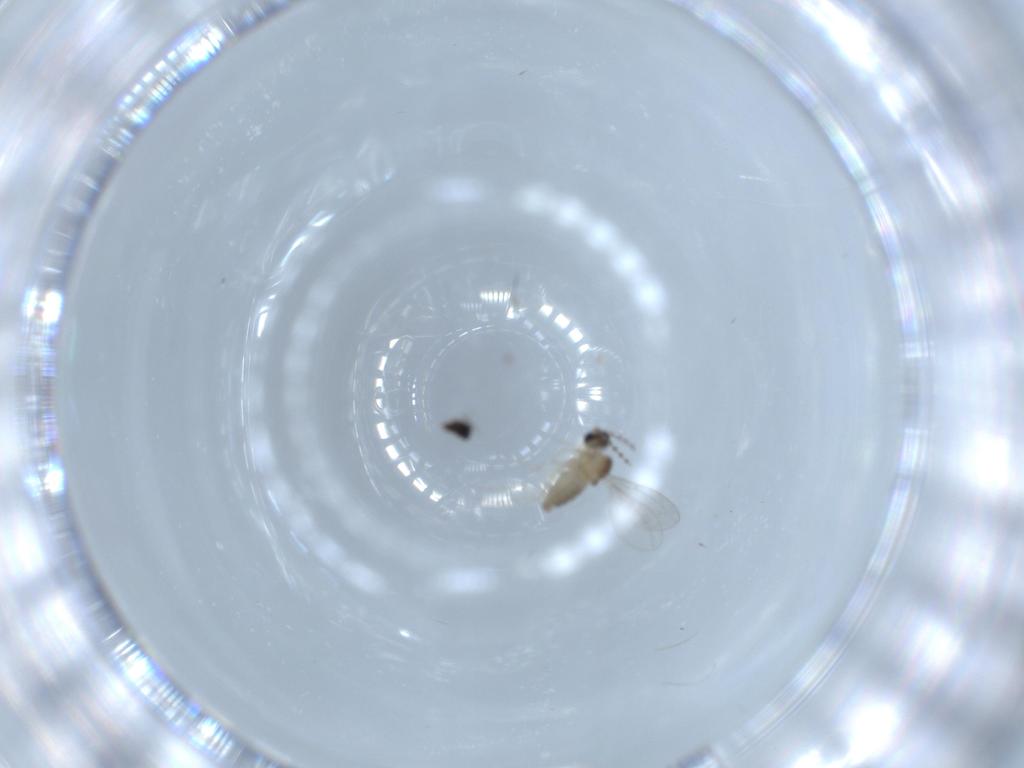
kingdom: Animalia
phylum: Arthropoda
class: Insecta
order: Diptera
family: Cecidomyiidae
